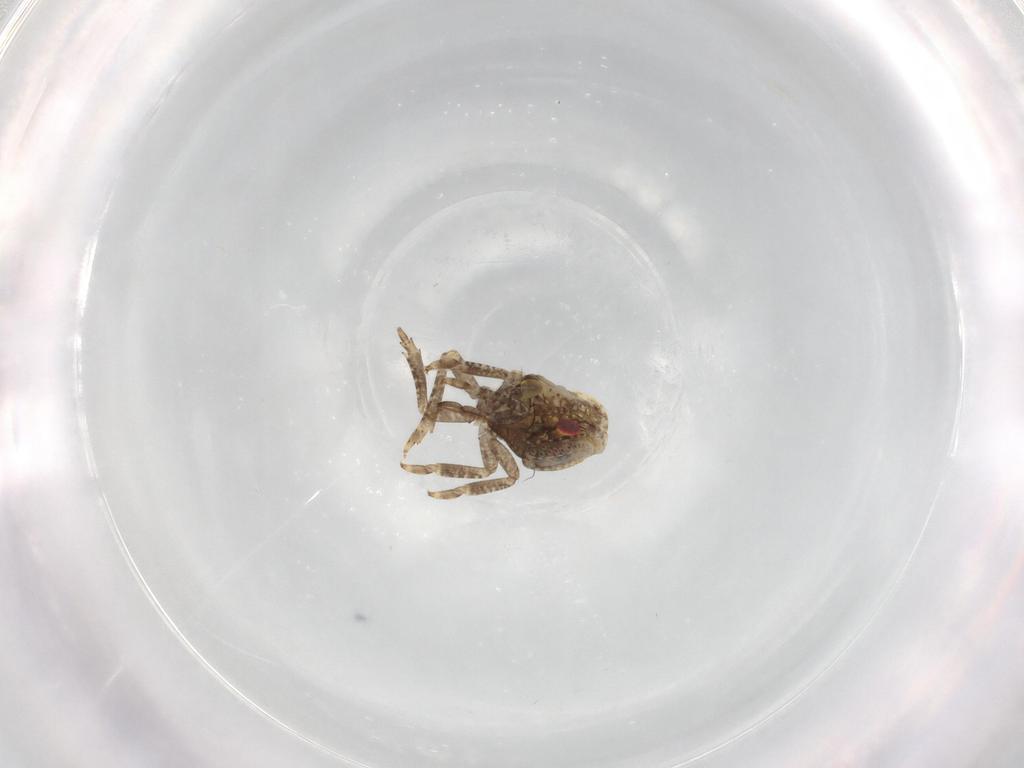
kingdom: Animalia
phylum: Arthropoda
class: Insecta
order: Hemiptera
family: Acanaloniidae
